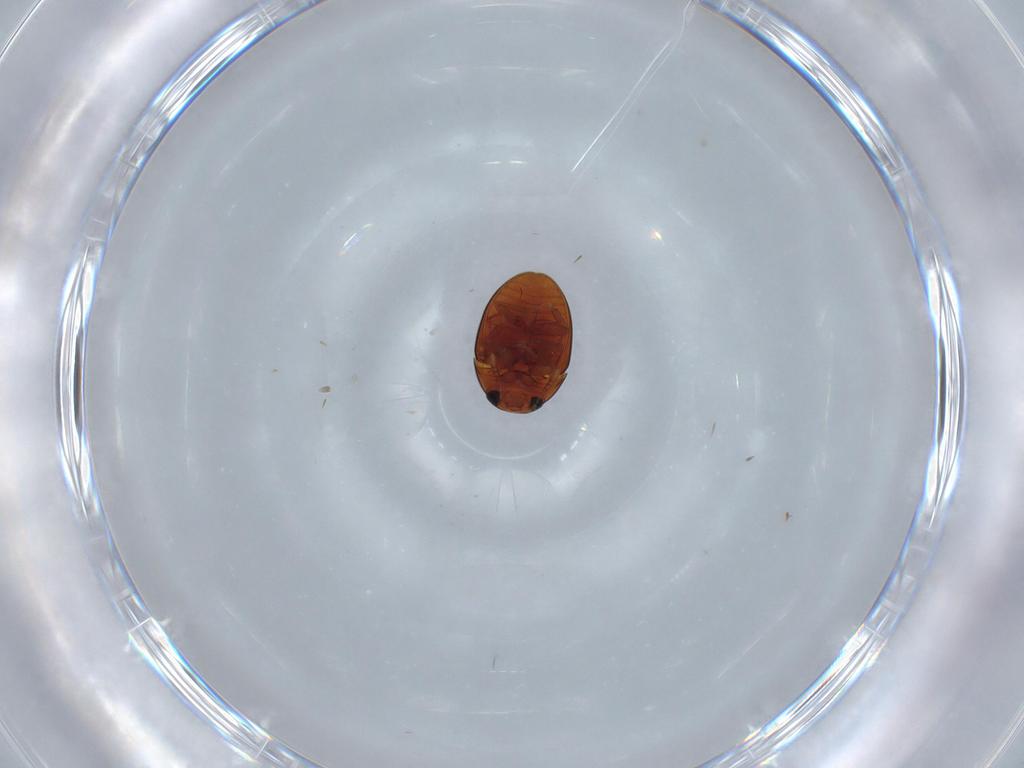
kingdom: Animalia
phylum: Arthropoda
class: Insecta
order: Coleoptera
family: Phalacridae
